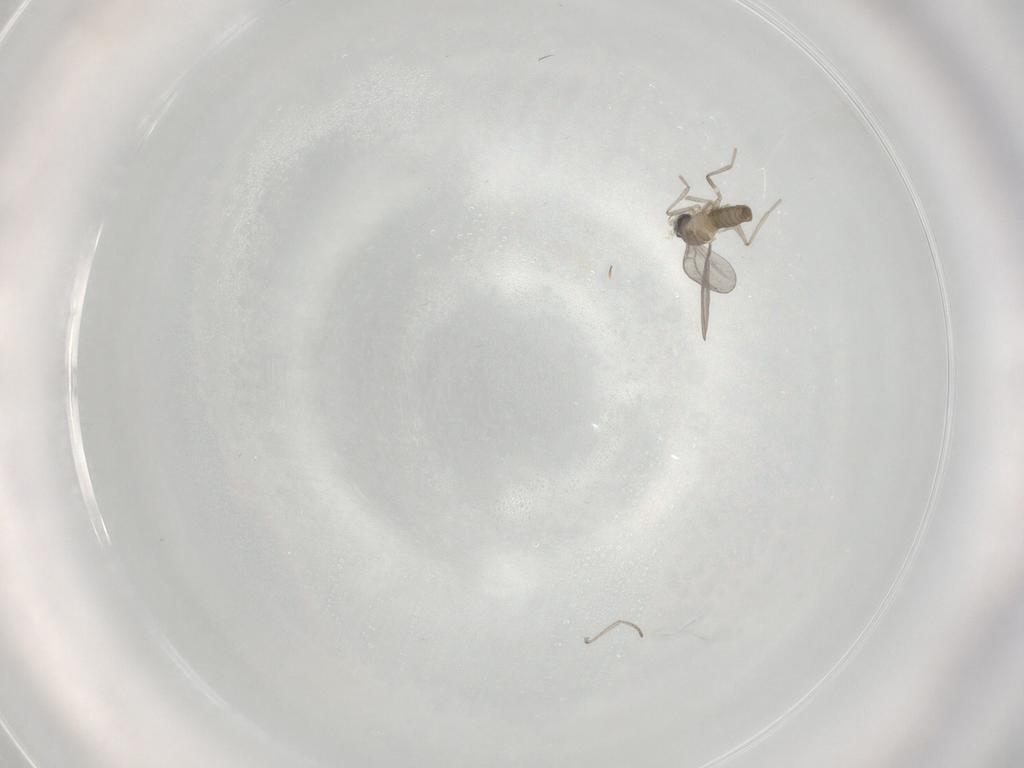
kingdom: Animalia
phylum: Arthropoda
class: Insecta
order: Diptera
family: Cecidomyiidae
